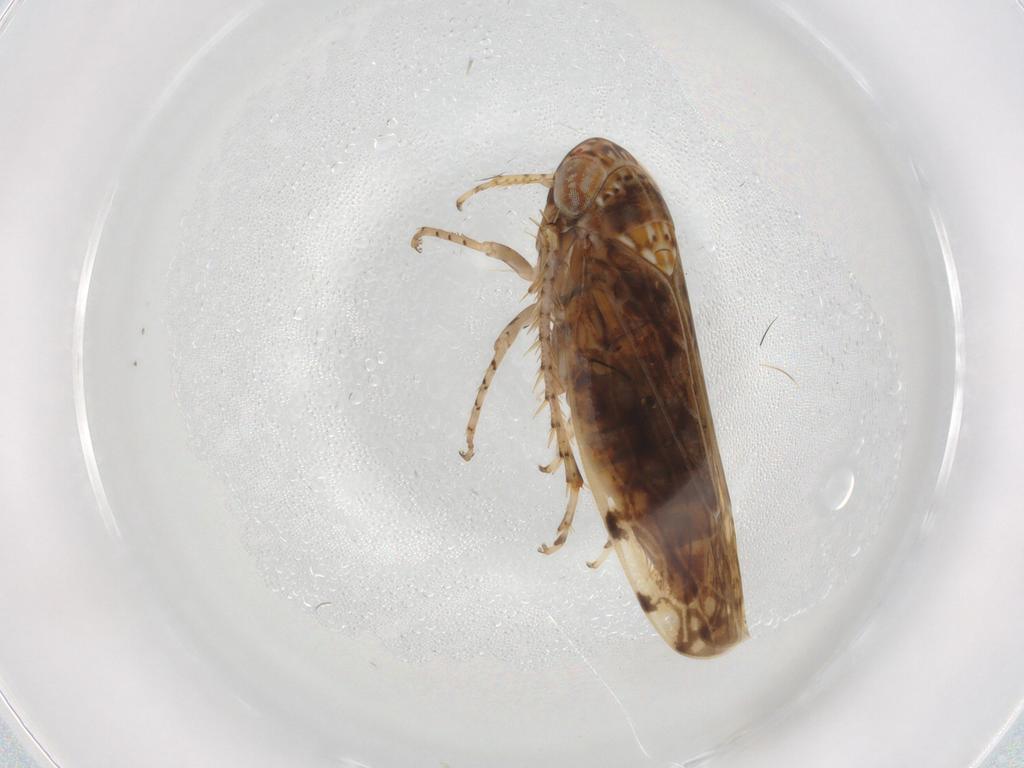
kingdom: Animalia
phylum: Arthropoda
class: Insecta
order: Hemiptera
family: Cicadellidae
